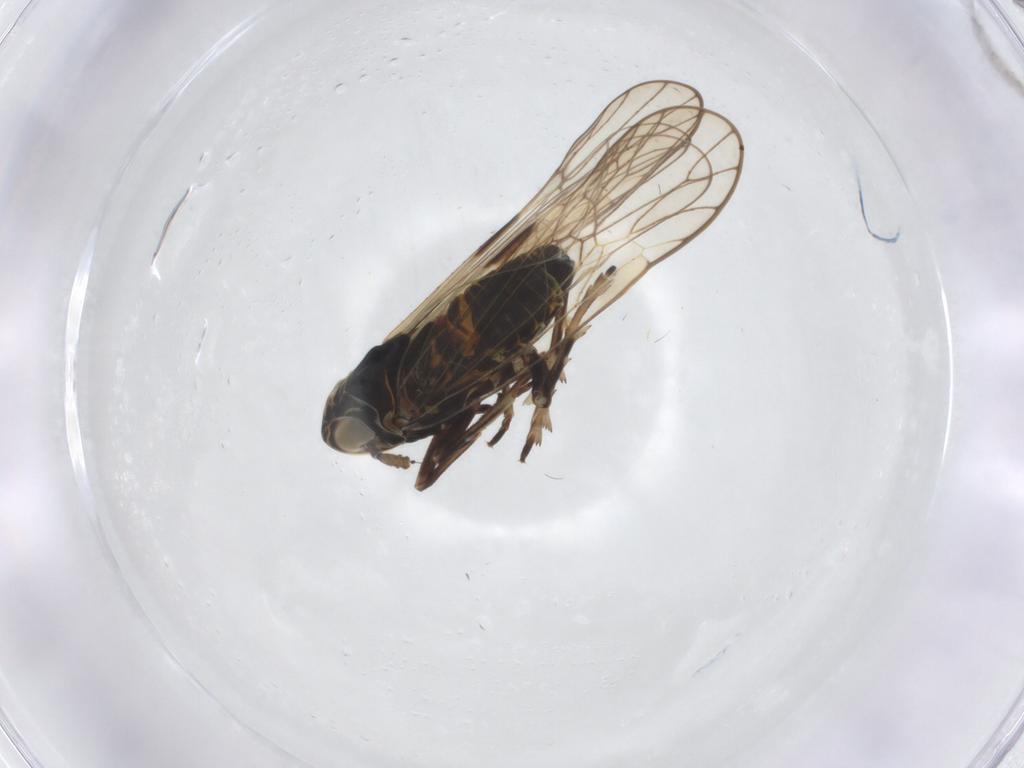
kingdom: Animalia
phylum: Arthropoda
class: Insecta
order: Hemiptera
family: Delphacidae
